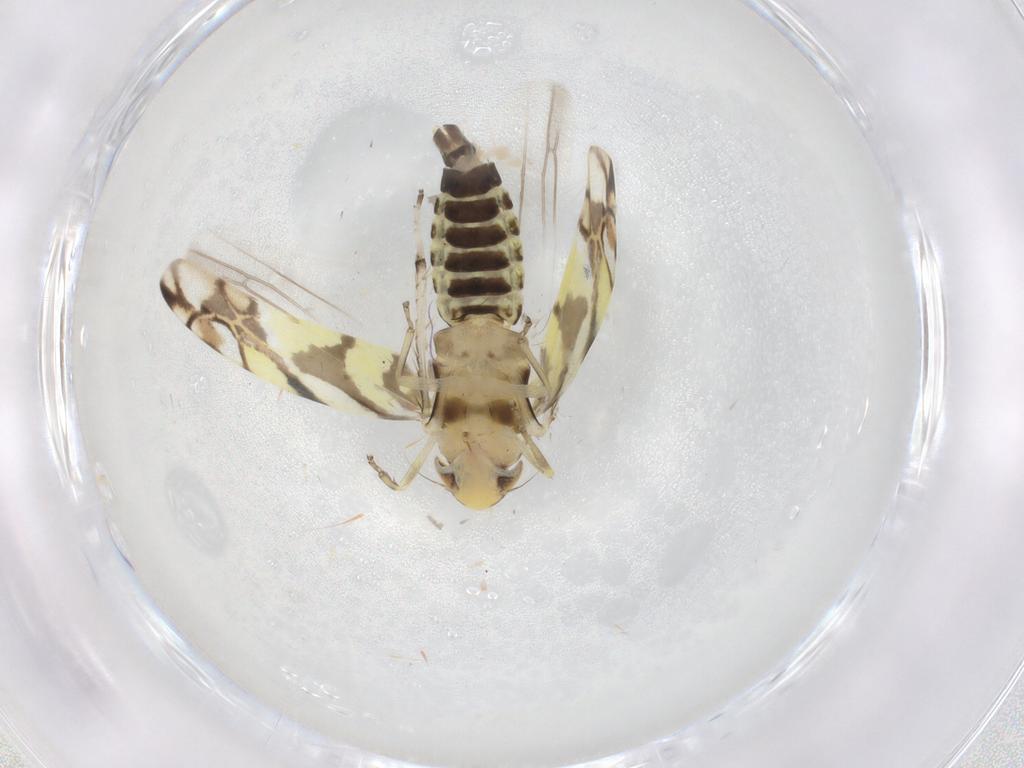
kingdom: Animalia
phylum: Arthropoda
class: Insecta
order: Hemiptera
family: Cicadellidae
